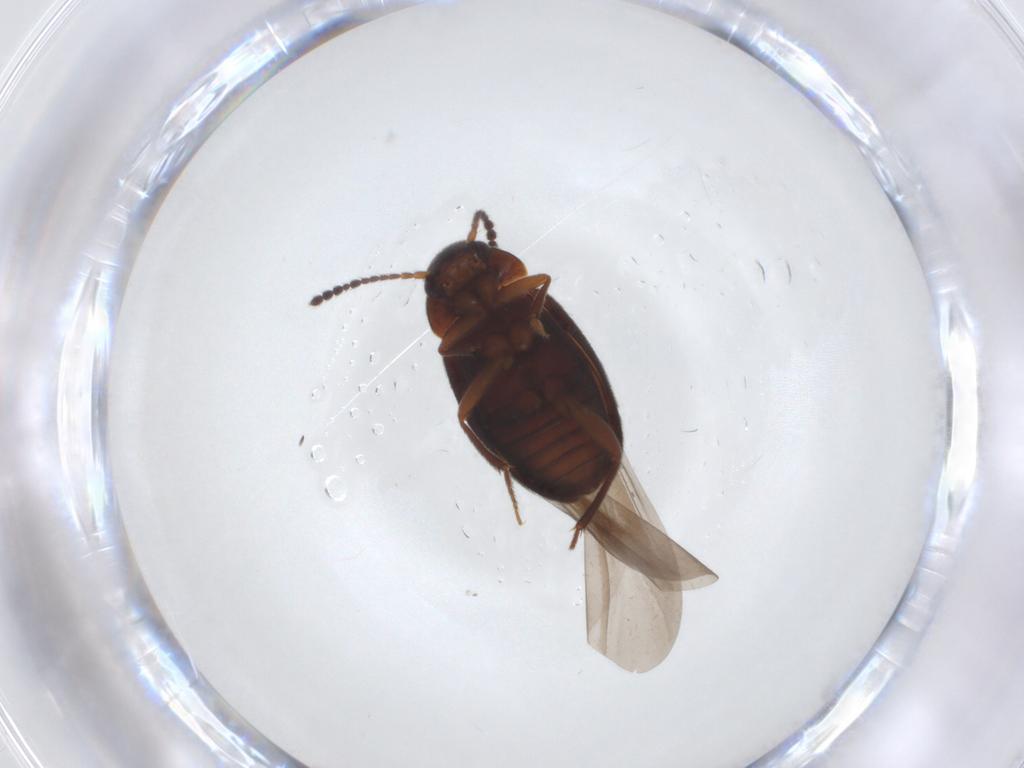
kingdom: Animalia
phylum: Arthropoda
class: Insecta
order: Coleoptera
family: Leiodidae
